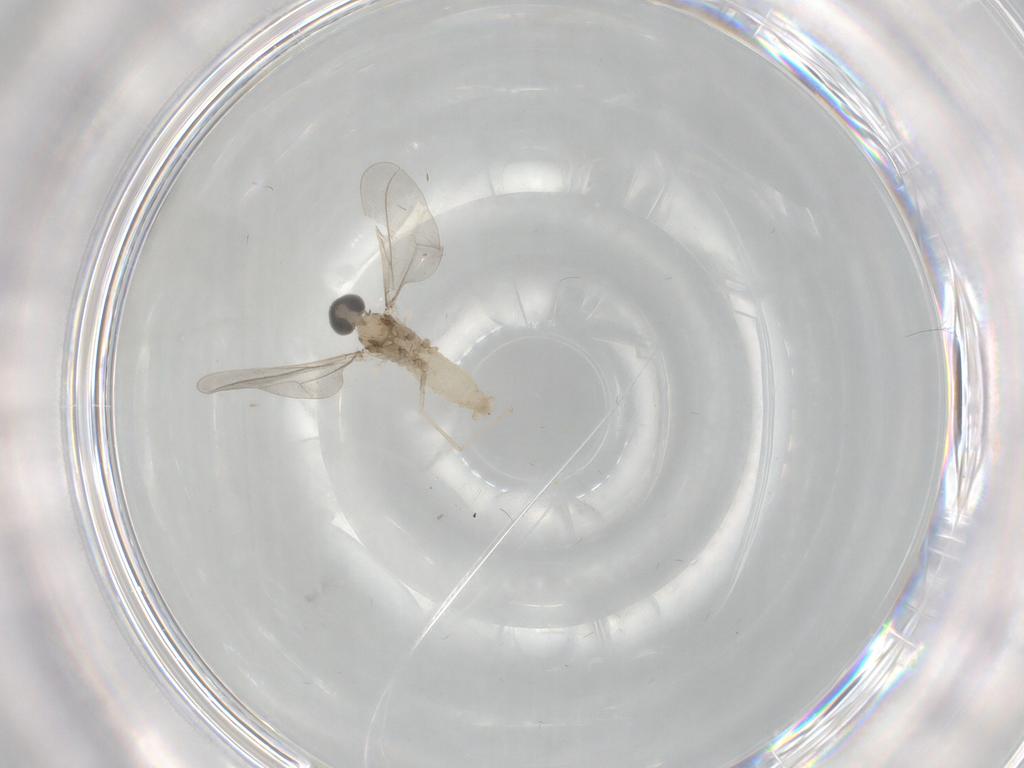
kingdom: Animalia
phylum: Arthropoda
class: Insecta
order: Diptera
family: Cecidomyiidae
